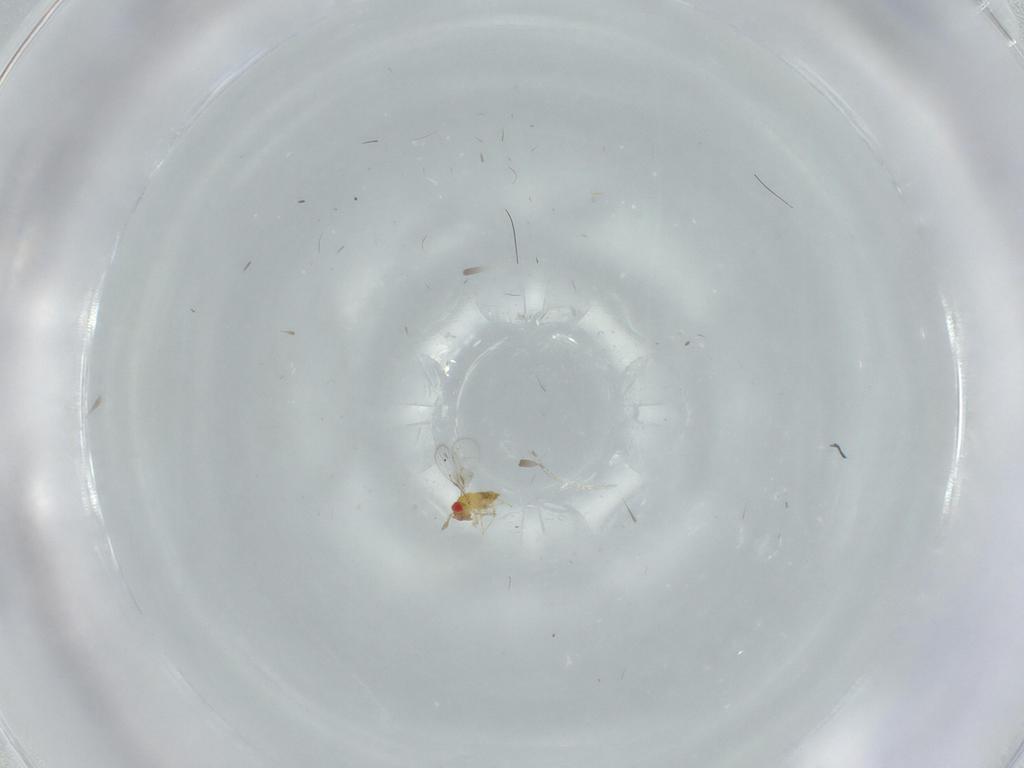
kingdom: Animalia
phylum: Arthropoda
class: Insecta
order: Hymenoptera
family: Trichogrammatidae
